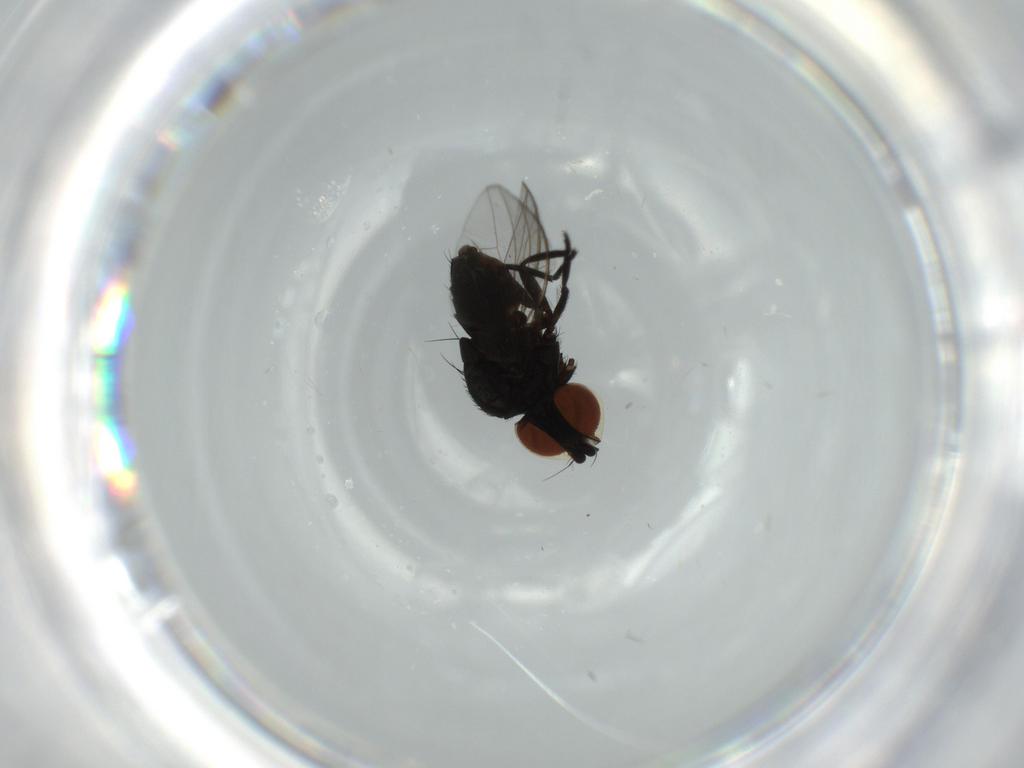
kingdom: Animalia
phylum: Arthropoda
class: Insecta
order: Diptera
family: Milichiidae
